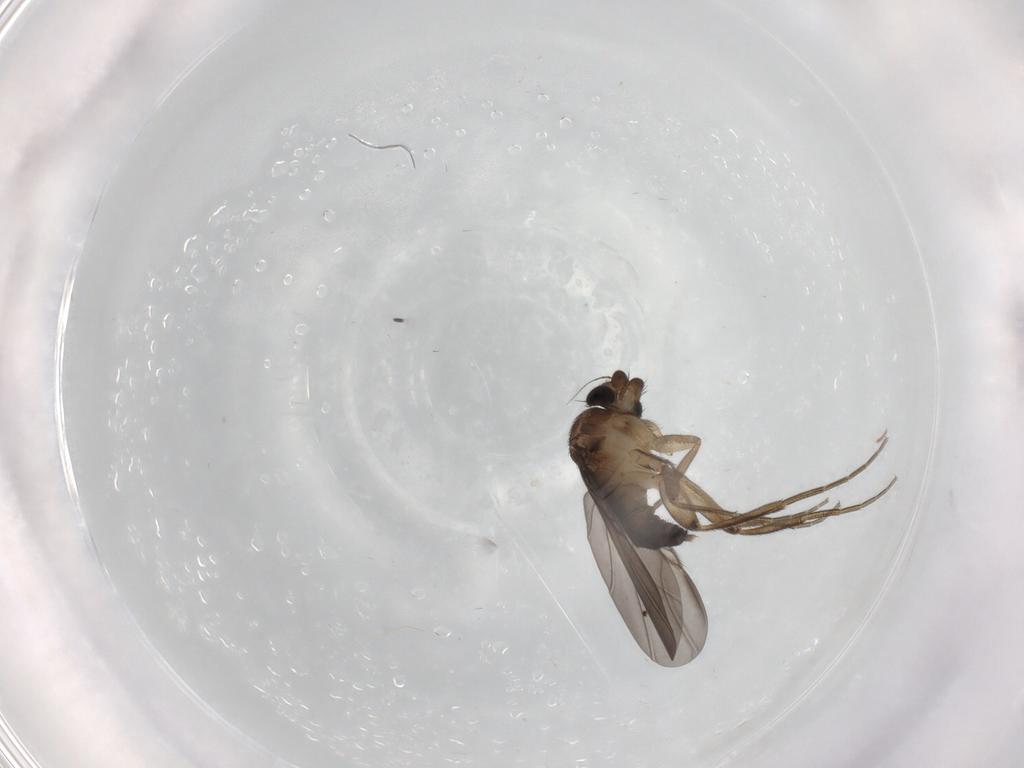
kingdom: Animalia
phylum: Arthropoda
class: Insecta
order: Diptera
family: Phoridae
